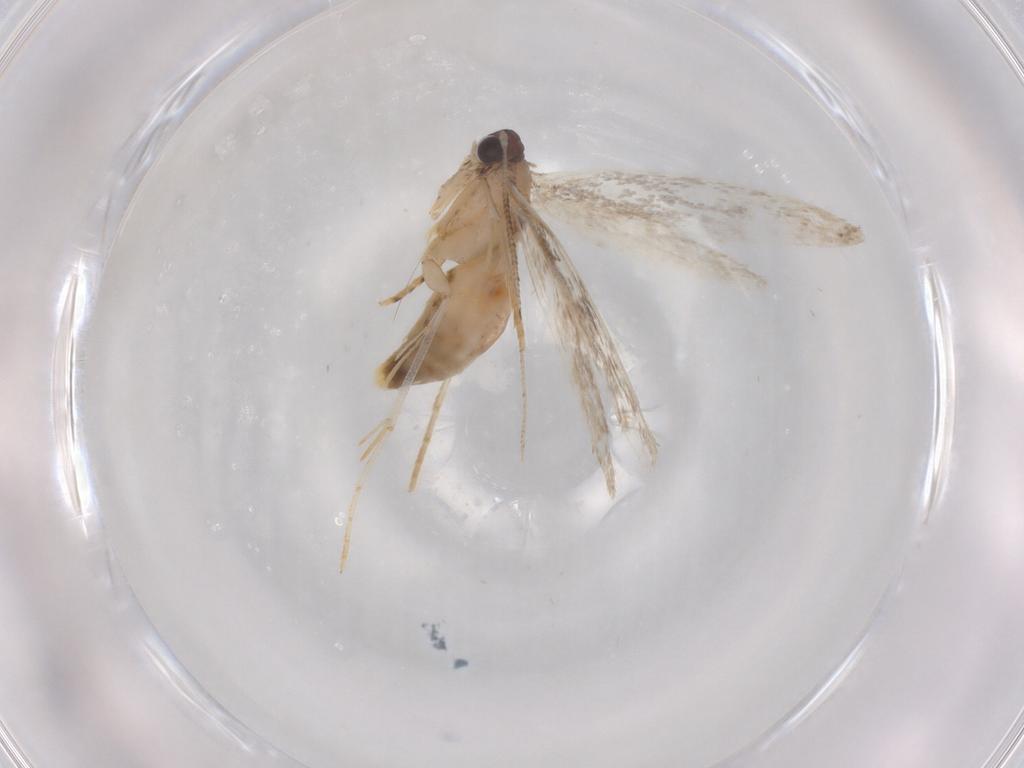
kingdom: Animalia
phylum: Arthropoda
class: Insecta
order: Lepidoptera
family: Tineidae
